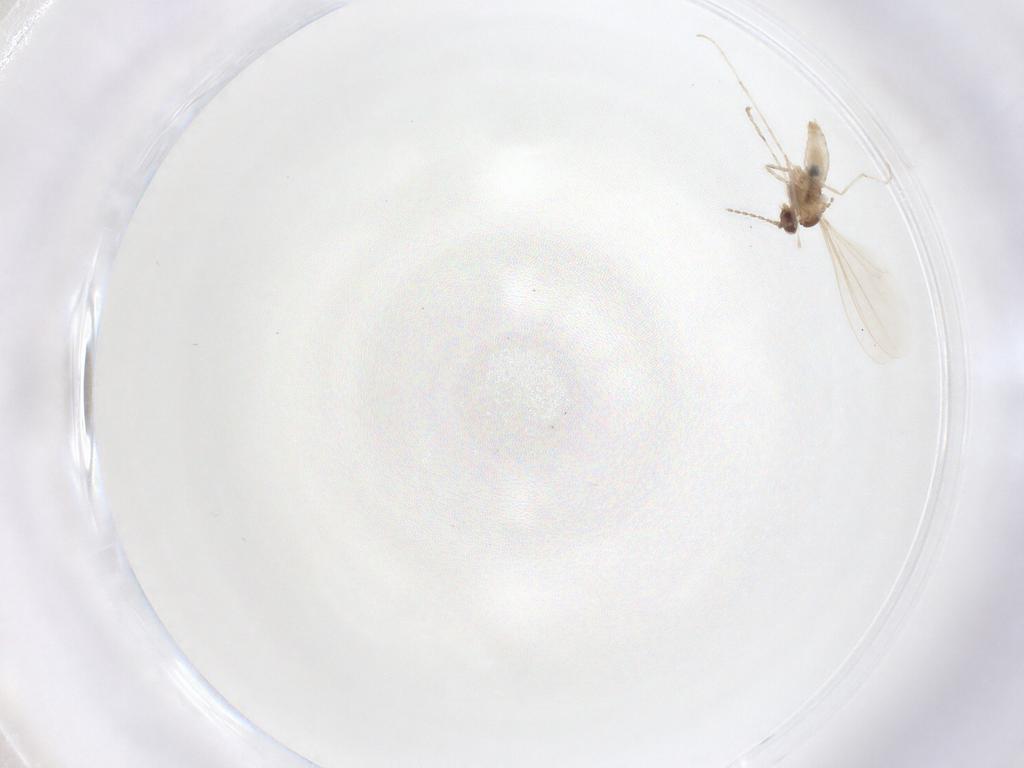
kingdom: Animalia
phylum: Arthropoda
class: Insecta
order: Diptera
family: Cecidomyiidae
